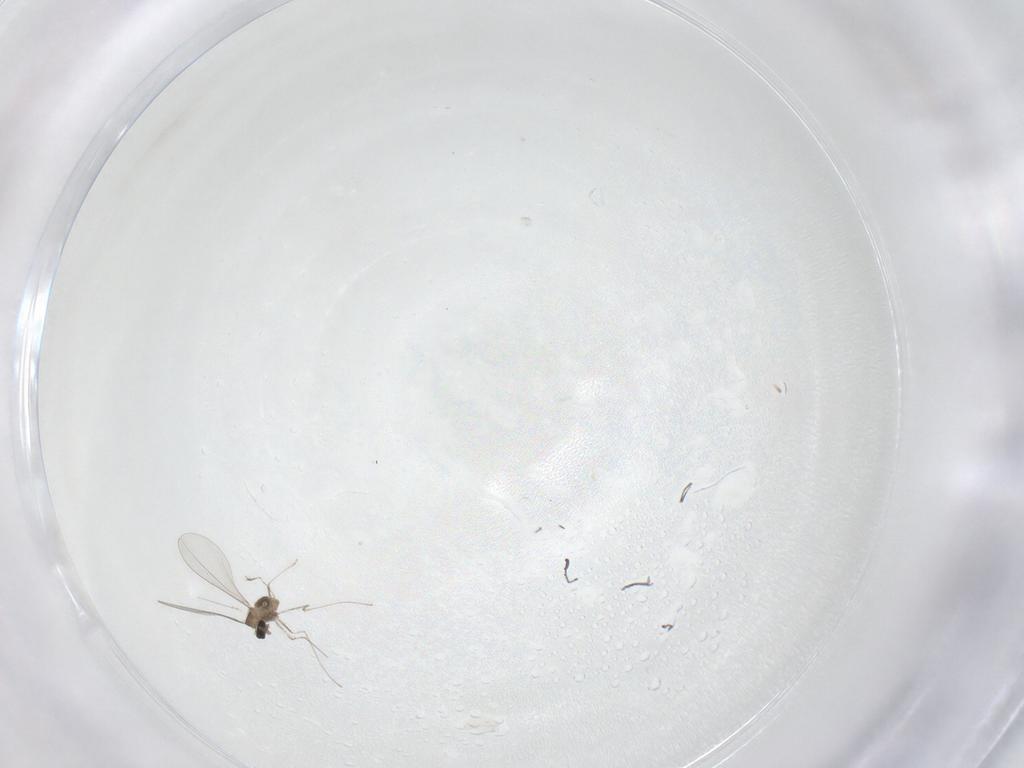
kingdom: Animalia
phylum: Arthropoda
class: Insecta
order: Diptera
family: Cecidomyiidae
